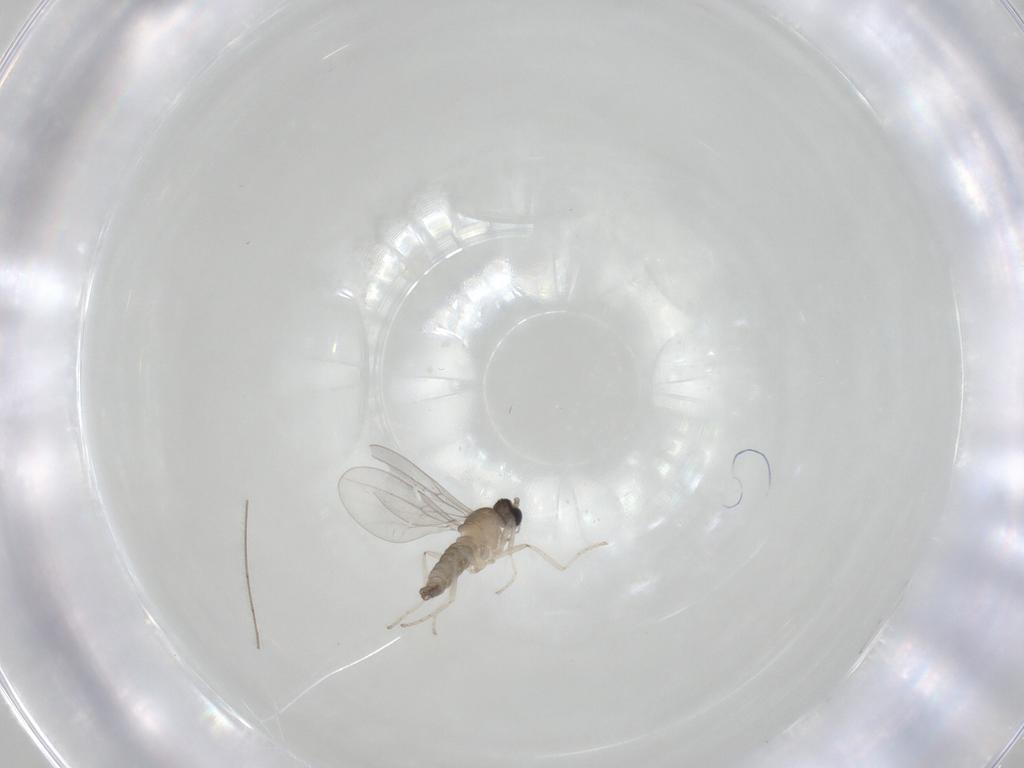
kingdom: Animalia
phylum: Arthropoda
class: Insecta
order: Diptera
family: Cecidomyiidae
